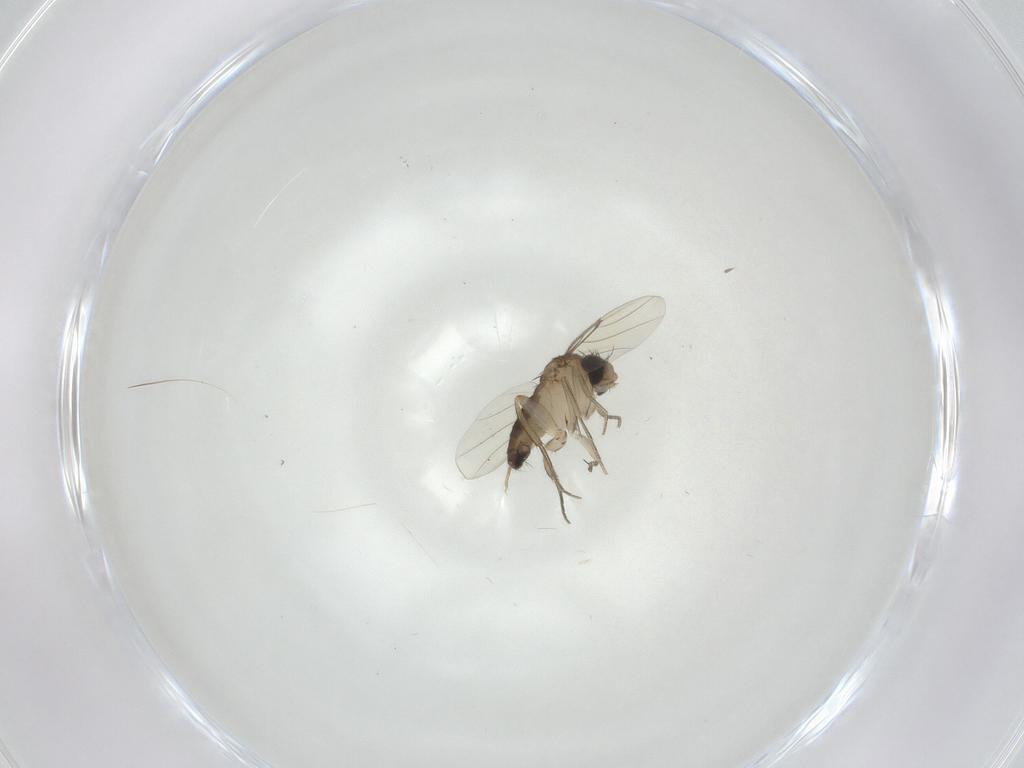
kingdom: Animalia
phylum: Arthropoda
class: Insecta
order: Diptera
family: Phoridae
